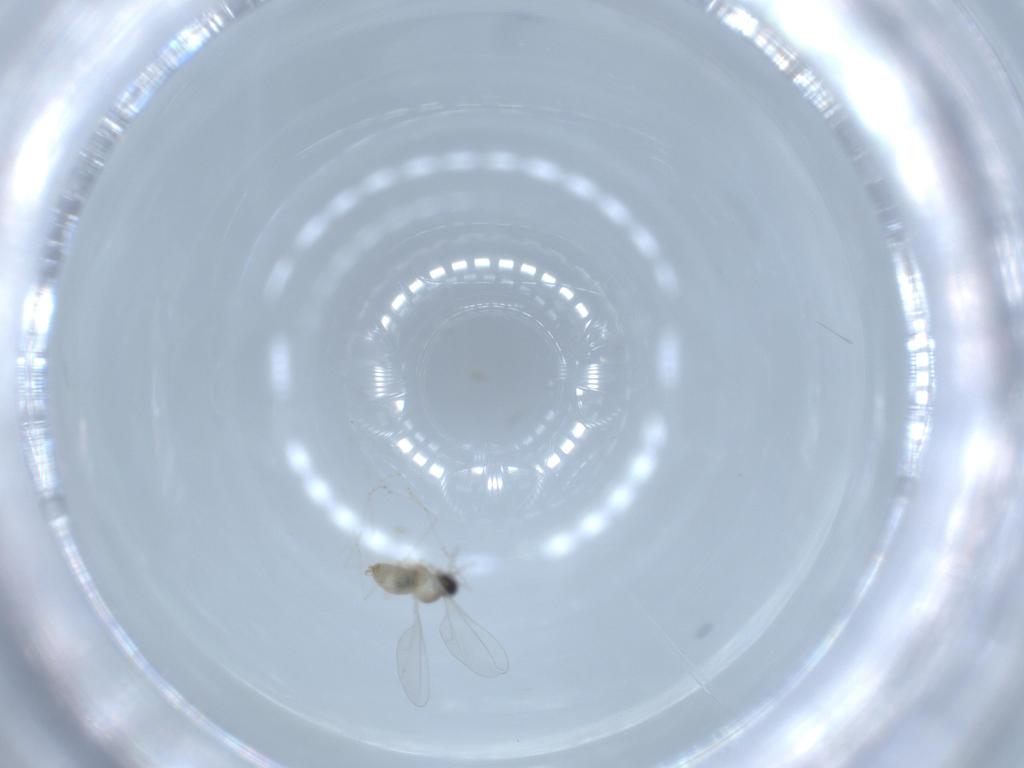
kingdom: Animalia
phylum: Arthropoda
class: Insecta
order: Diptera
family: Cecidomyiidae
